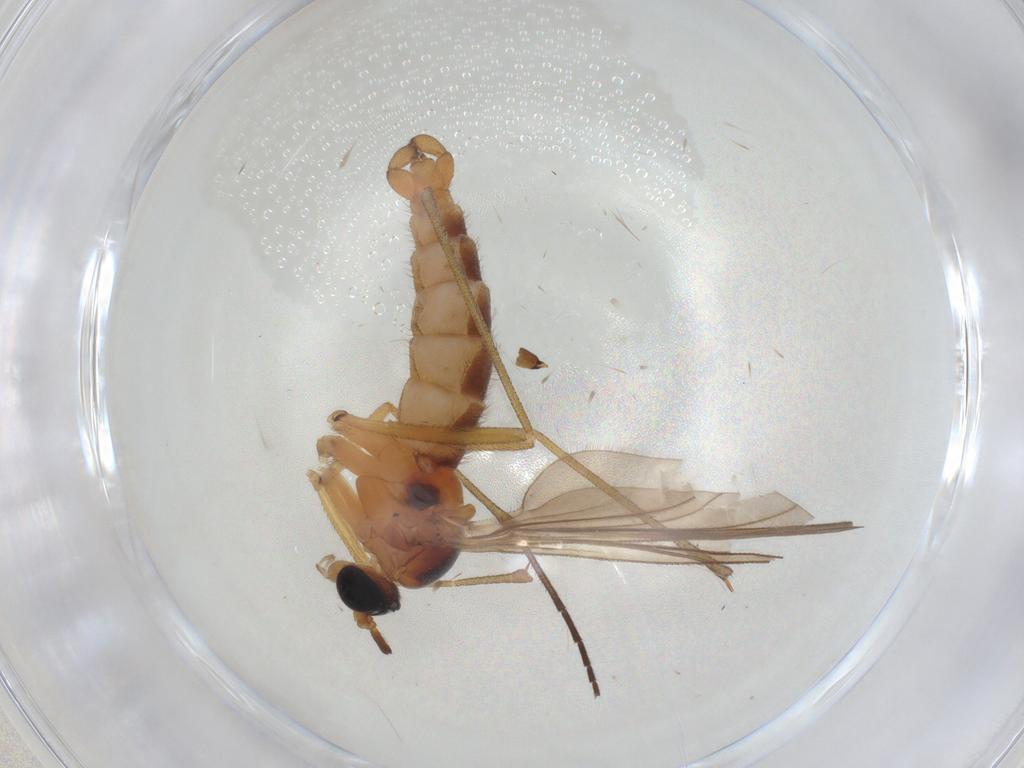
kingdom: Animalia
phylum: Arthropoda
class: Insecta
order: Diptera
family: Sciaridae
